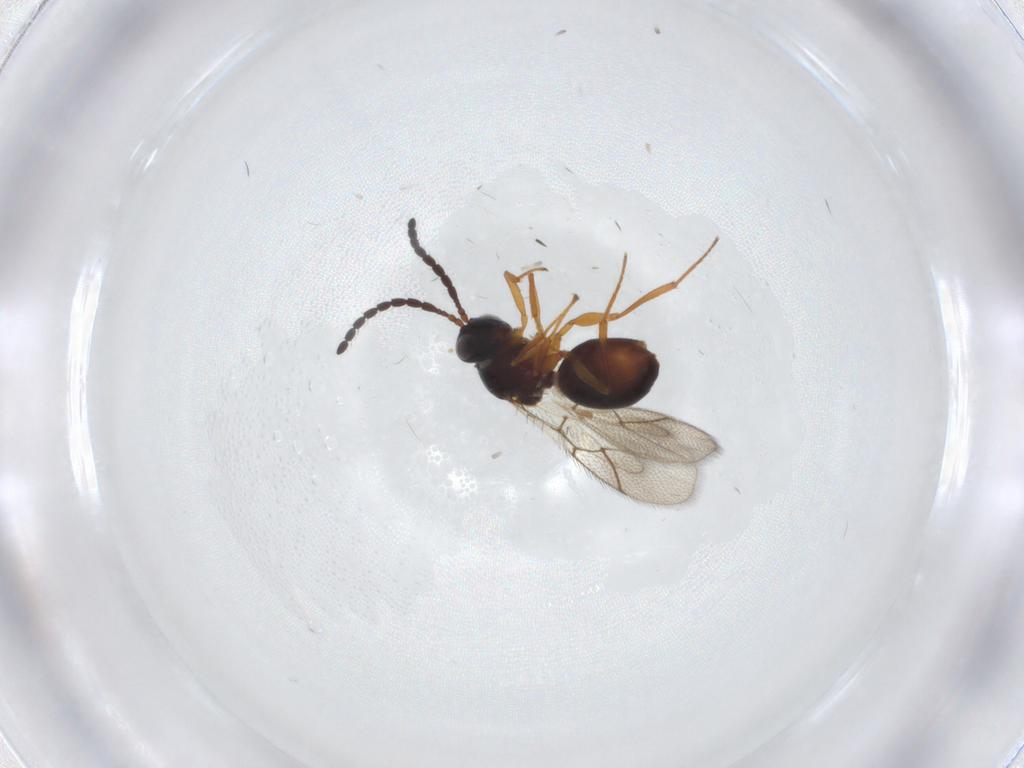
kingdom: Animalia
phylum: Arthropoda
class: Insecta
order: Hymenoptera
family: Figitidae
